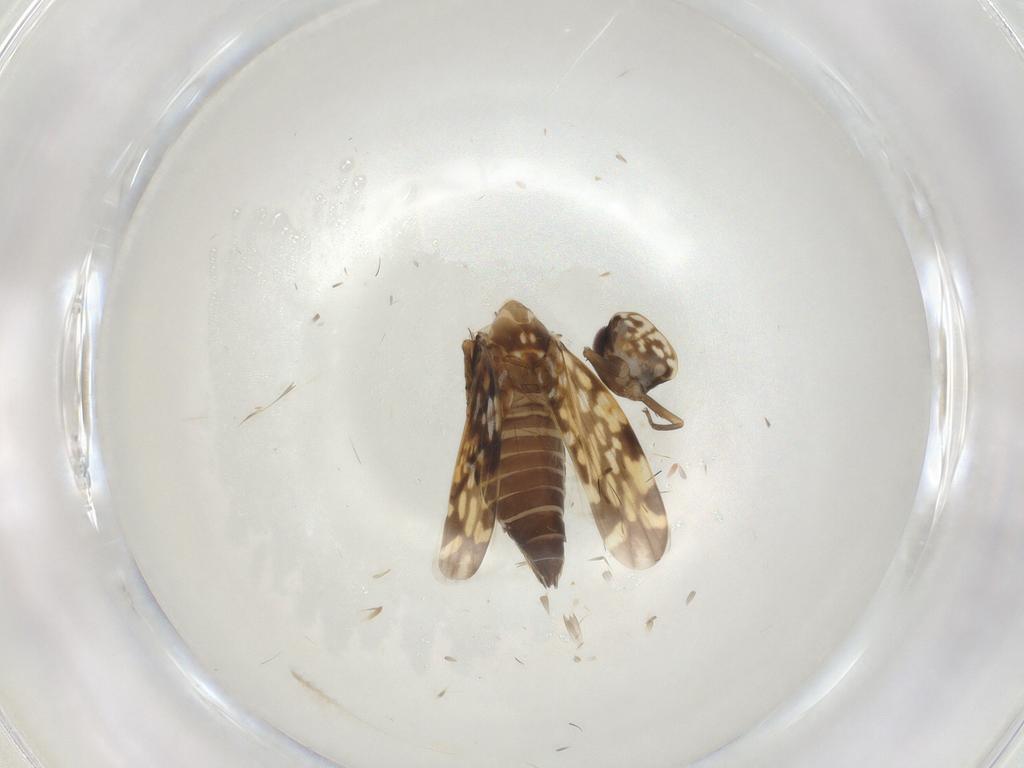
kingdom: Animalia
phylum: Arthropoda
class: Insecta
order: Hemiptera
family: Cicadellidae
